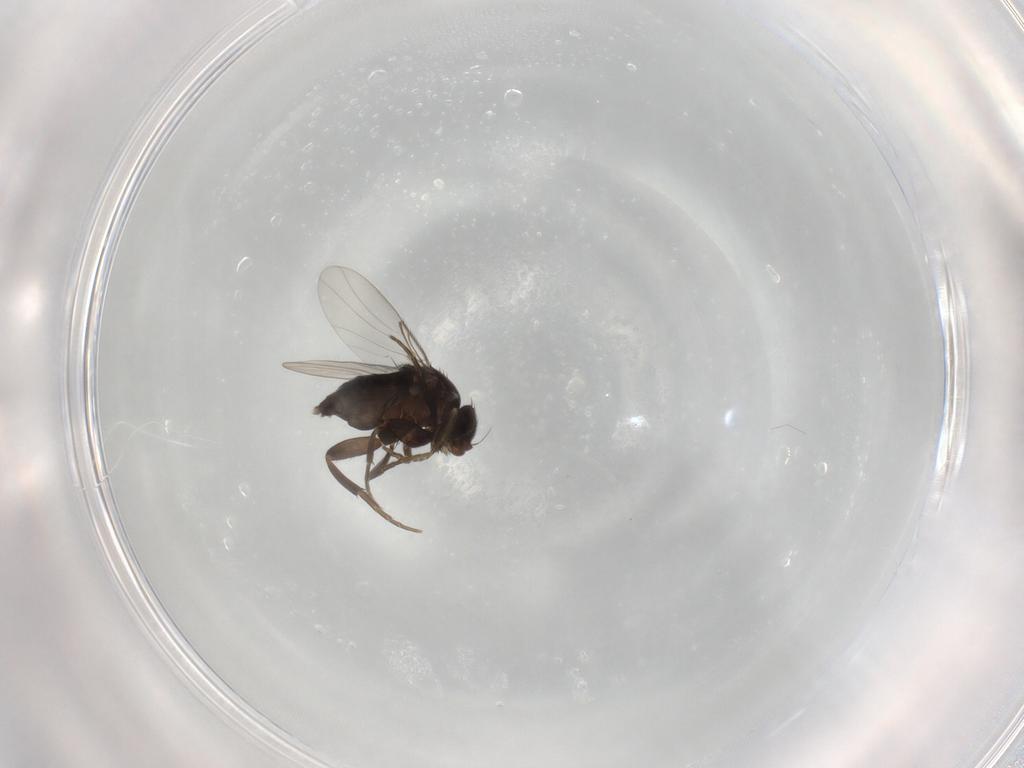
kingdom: Animalia
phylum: Arthropoda
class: Insecta
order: Diptera
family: Phoridae
